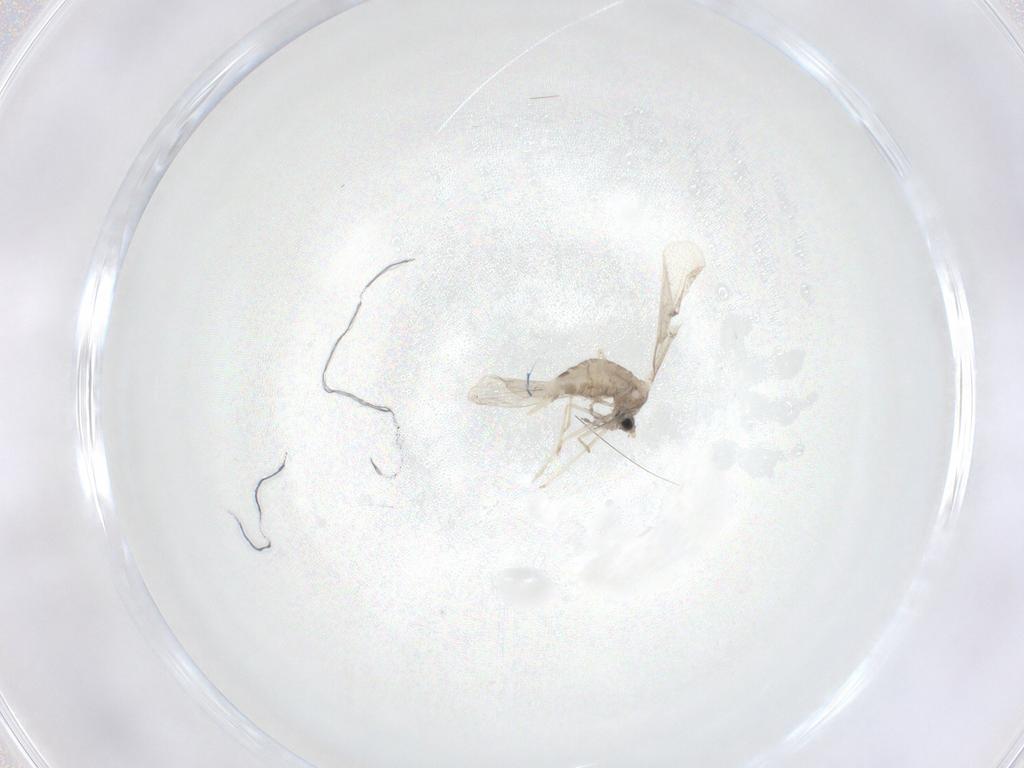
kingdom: Animalia
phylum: Arthropoda
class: Insecta
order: Diptera
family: Cecidomyiidae
